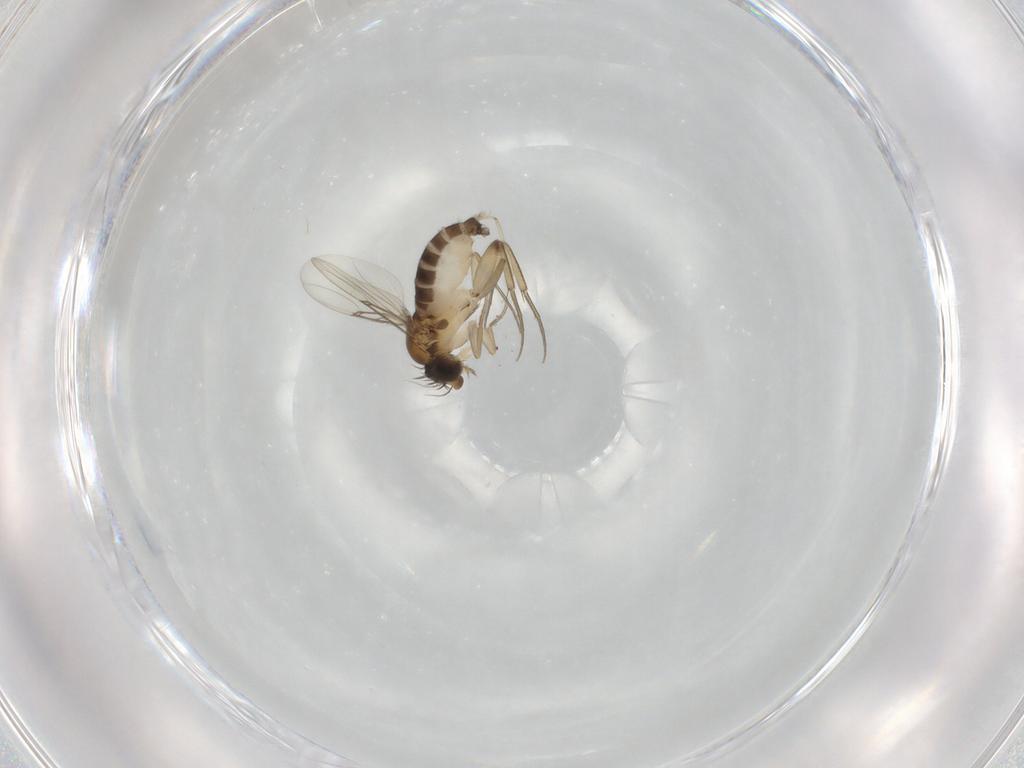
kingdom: Animalia
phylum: Arthropoda
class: Insecta
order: Diptera
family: Phoridae
